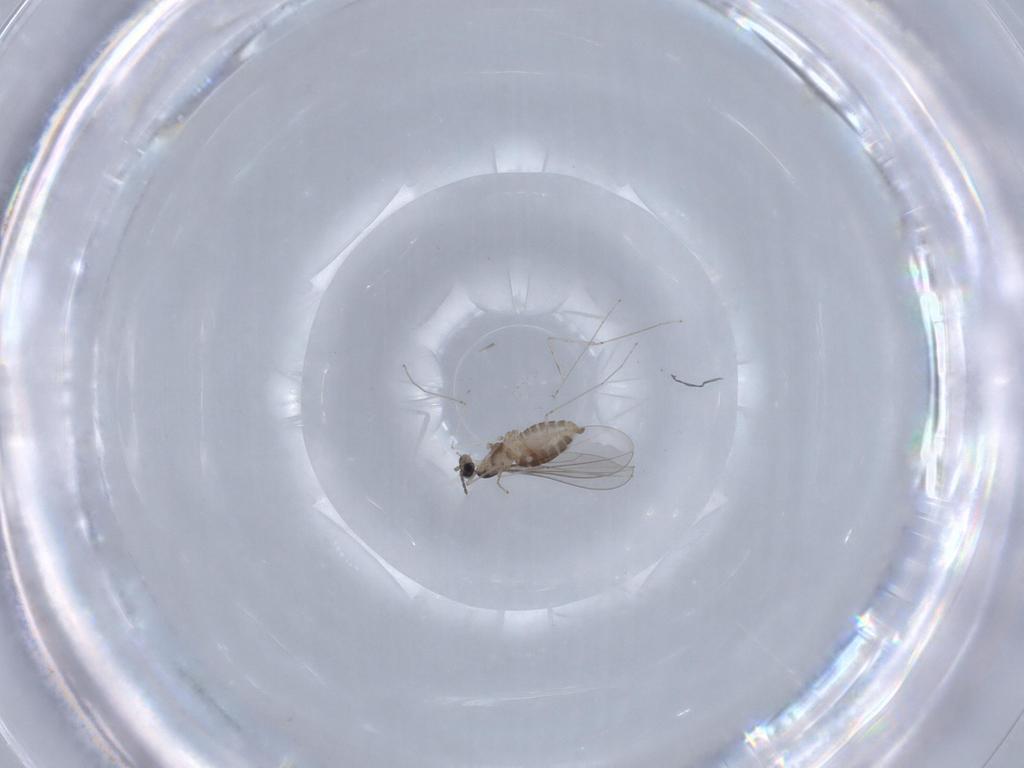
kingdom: Animalia
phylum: Arthropoda
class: Insecta
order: Diptera
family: Cecidomyiidae
